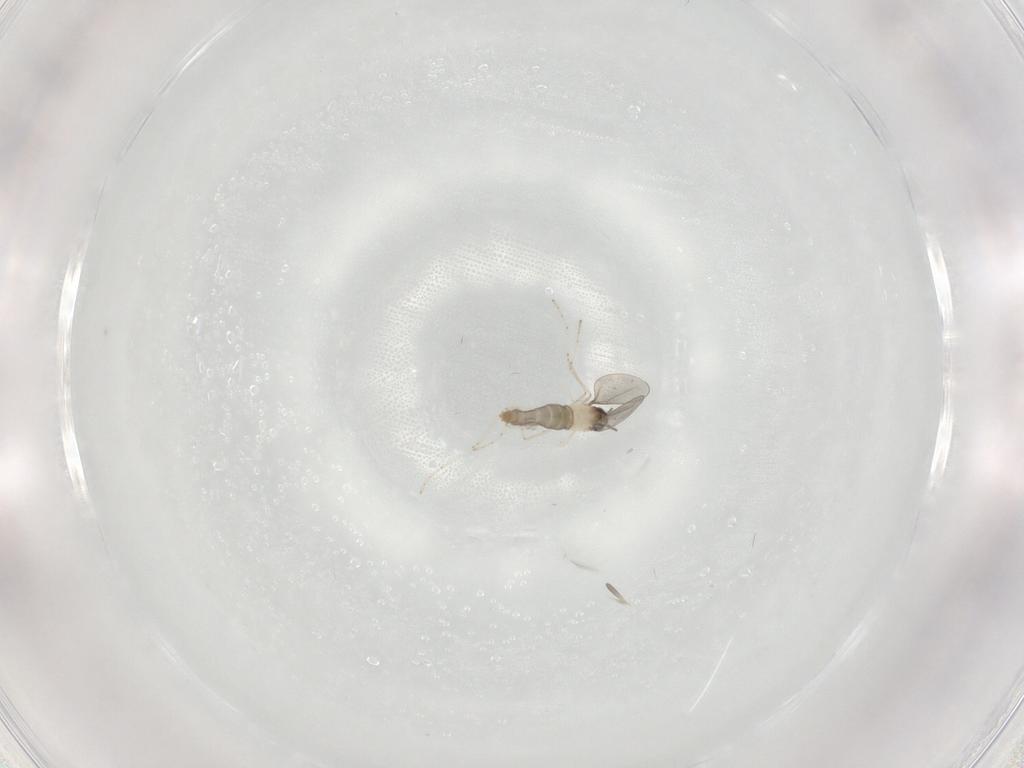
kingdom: Animalia
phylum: Arthropoda
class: Insecta
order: Diptera
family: Cecidomyiidae
